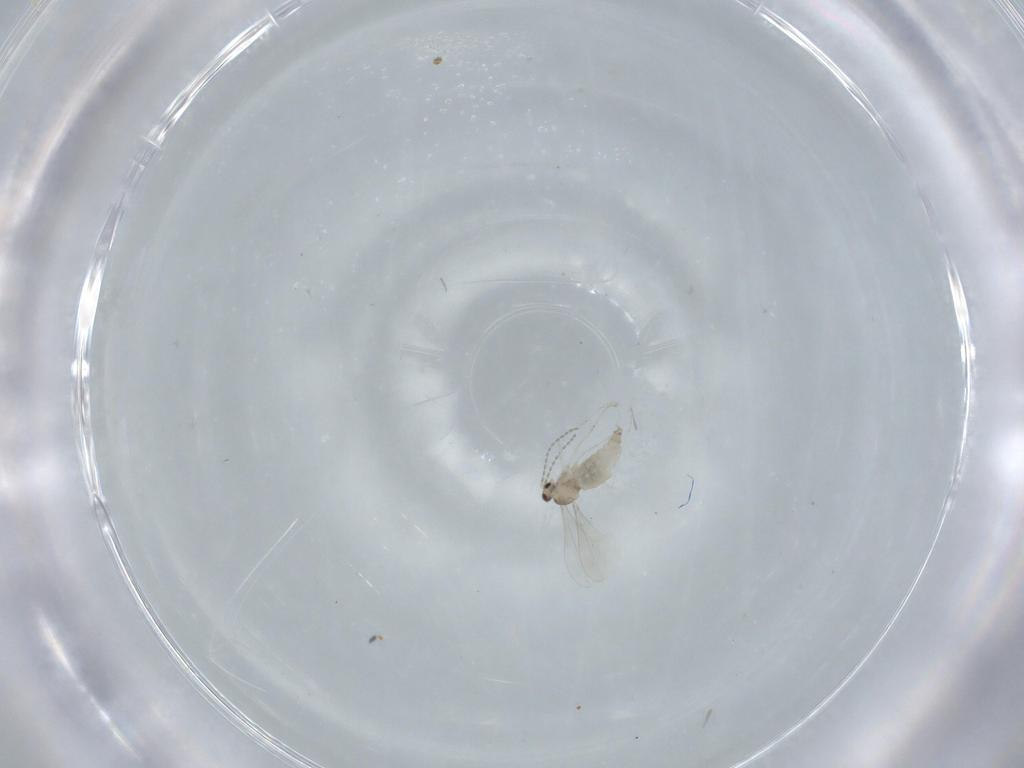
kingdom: Animalia
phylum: Arthropoda
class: Insecta
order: Diptera
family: Cecidomyiidae
